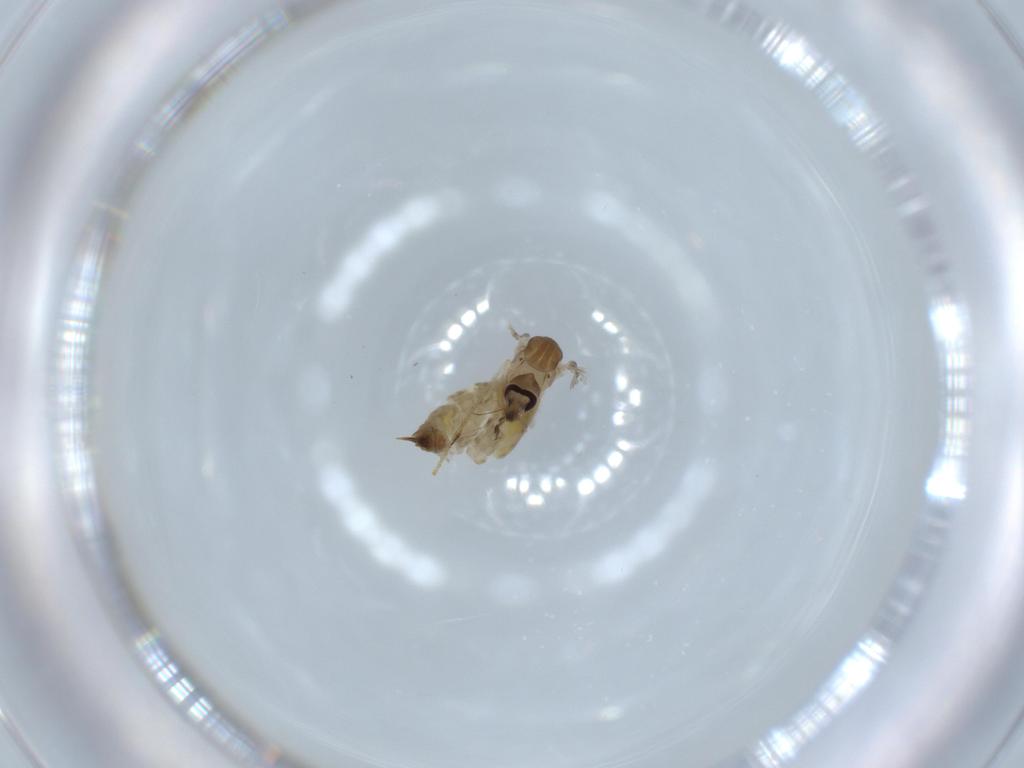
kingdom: Animalia
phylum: Arthropoda
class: Insecta
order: Diptera
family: Psychodidae
